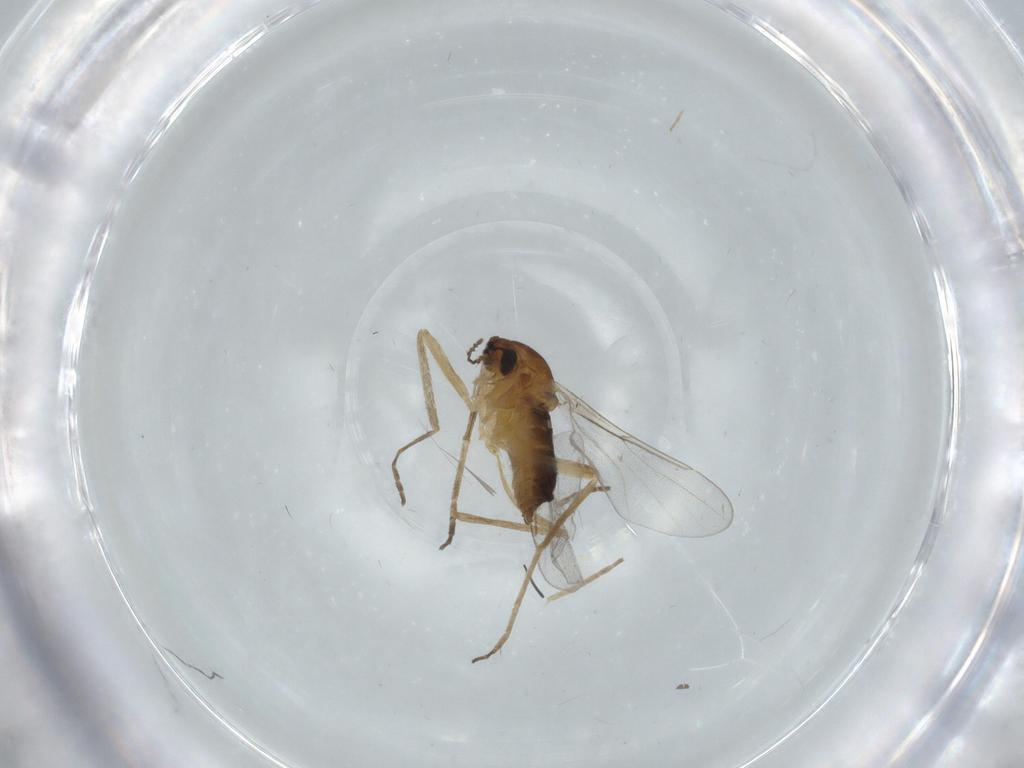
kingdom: Animalia
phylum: Arthropoda
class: Insecta
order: Diptera
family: Cecidomyiidae
